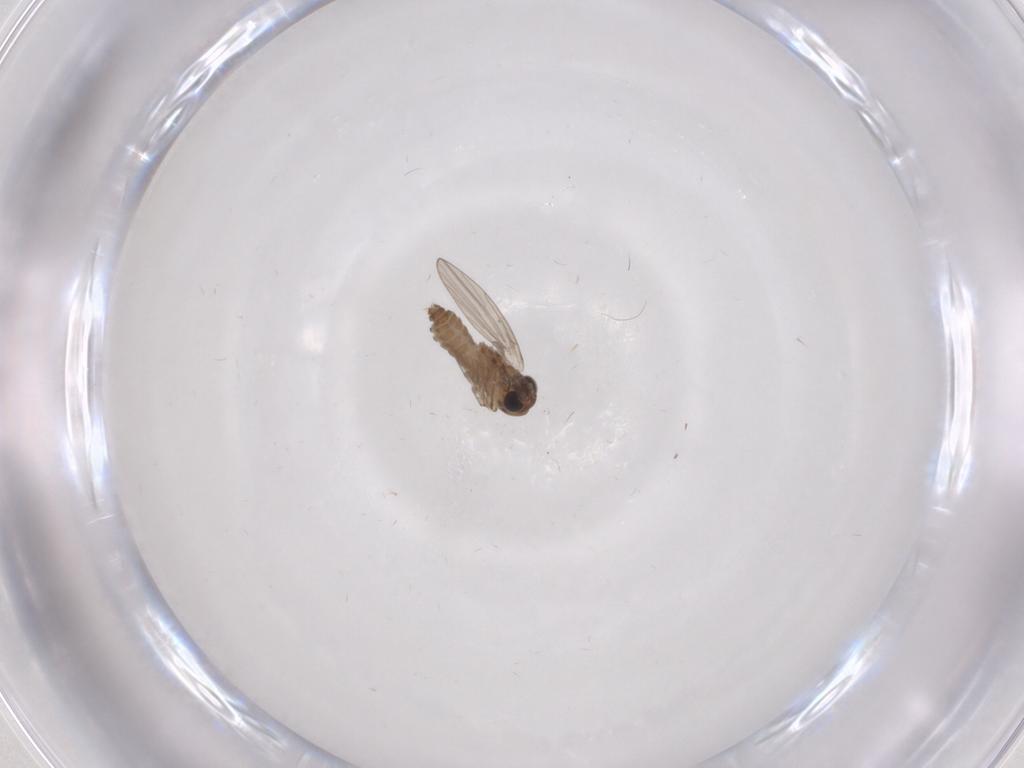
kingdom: Animalia
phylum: Arthropoda
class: Insecta
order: Diptera
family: Psychodidae
